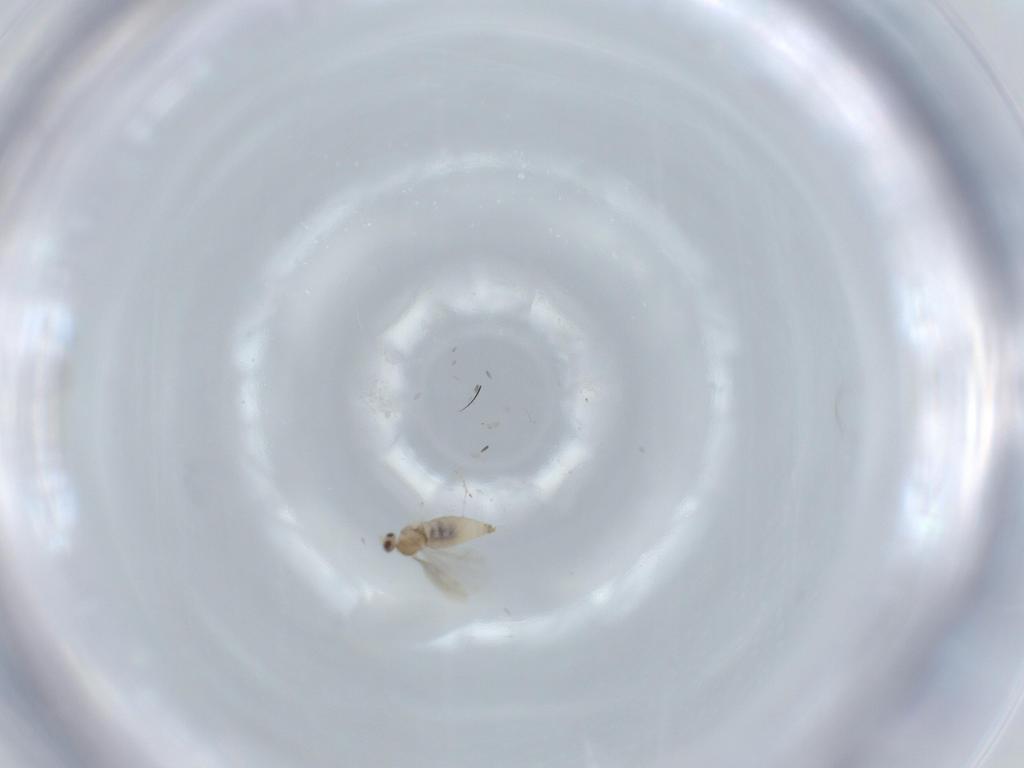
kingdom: Animalia
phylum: Arthropoda
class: Insecta
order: Diptera
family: Cecidomyiidae
